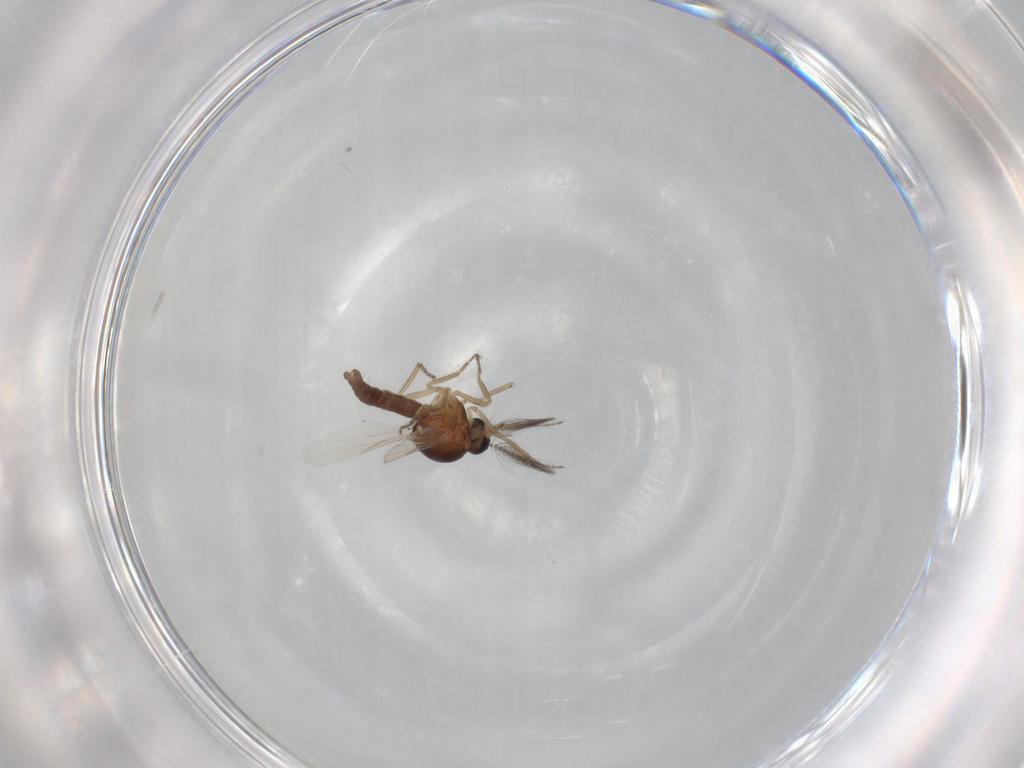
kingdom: Animalia
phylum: Arthropoda
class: Insecta
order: Diptera
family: Ceratopogonidae
